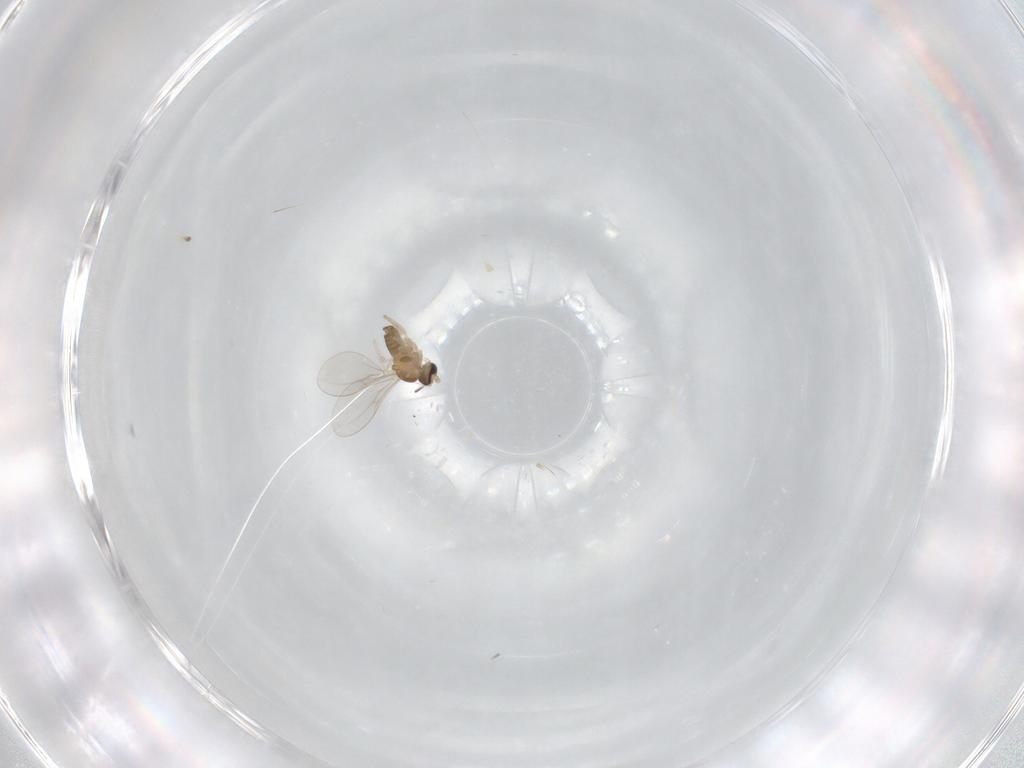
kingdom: Animalia
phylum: Arthropoda
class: Insecta
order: Diptera
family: Cecidomyiidae
